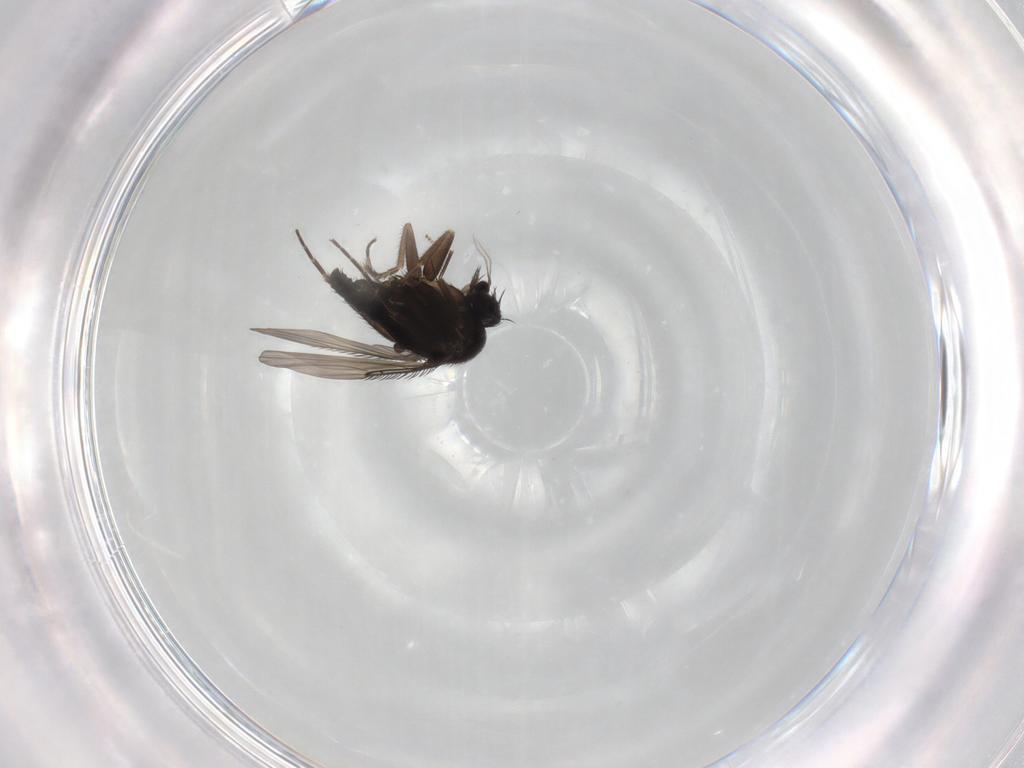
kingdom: Animalia
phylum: Arthropoda
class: Insecta
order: Diptera
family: Phoridae
